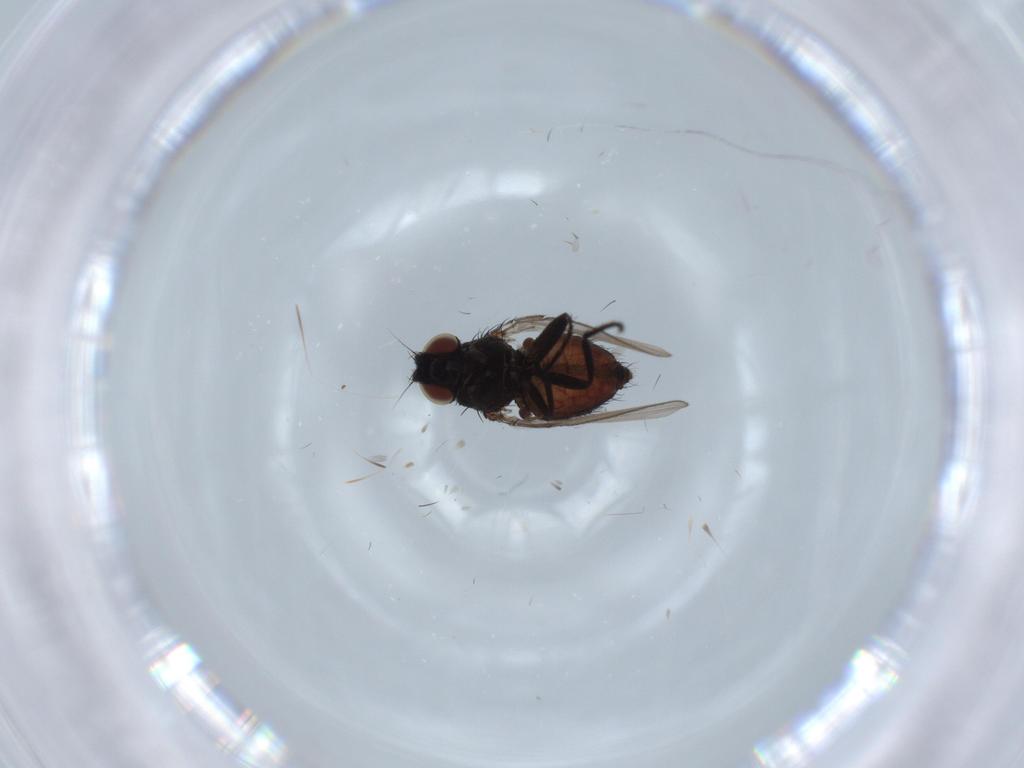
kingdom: Animalia
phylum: Arthropoda
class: Insecta
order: Diptera
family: Milichiidae
